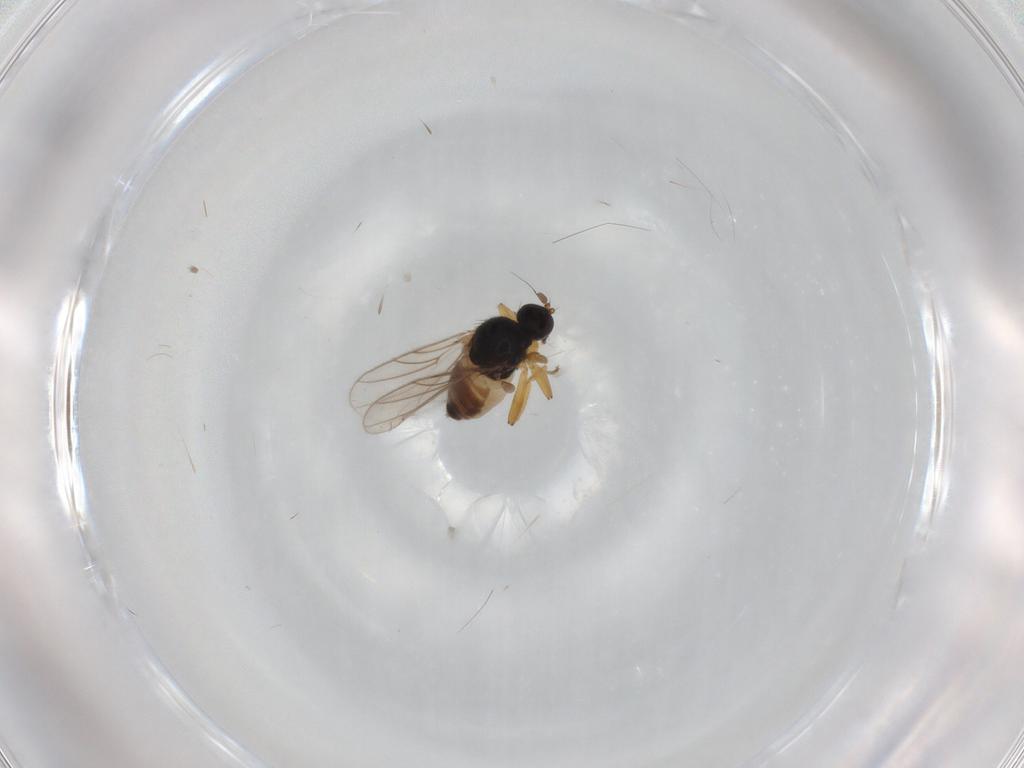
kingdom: Animalia
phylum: Arthropoda
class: Insecta
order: Diptera
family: Hybotidae
